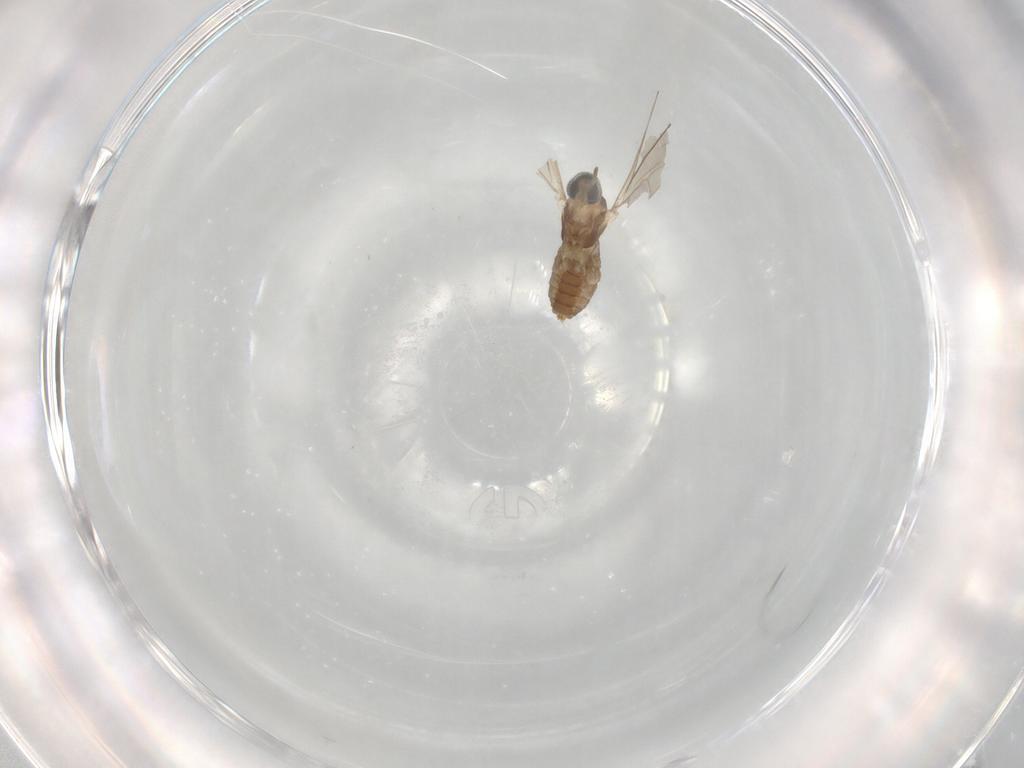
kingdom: Animalia
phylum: Arthropoda
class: Insecta
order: Diptera
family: Cecidomyiidae
